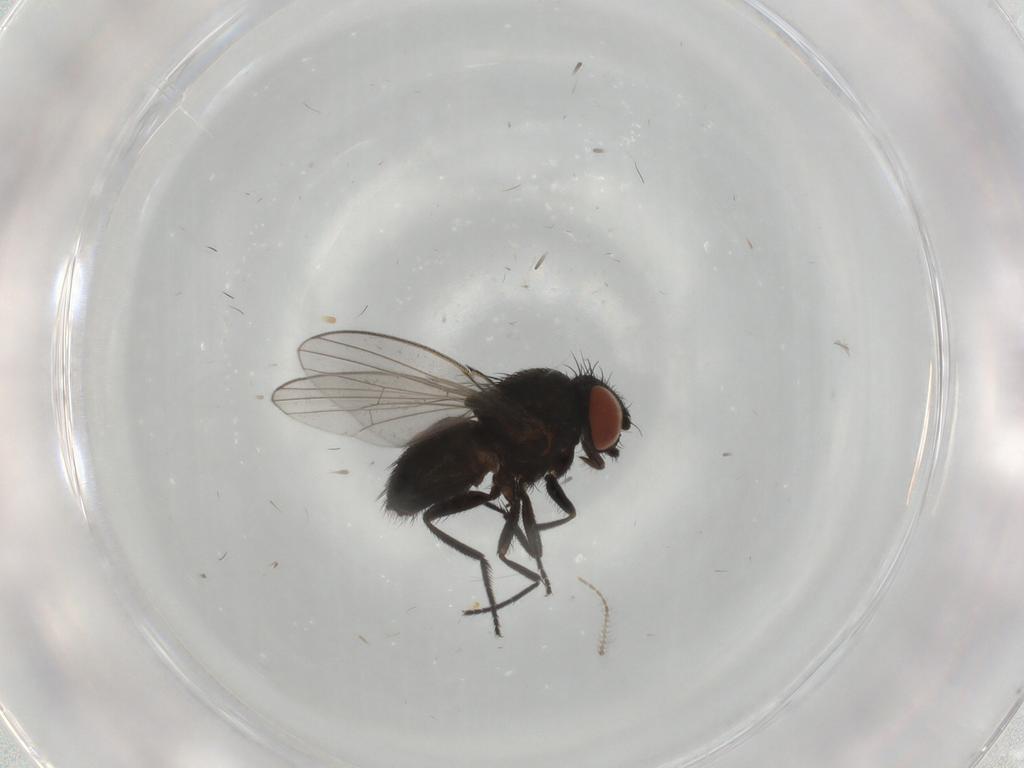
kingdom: Animalia
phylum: Arthropoda
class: Insecta
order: Diptera
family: Milichiidae
